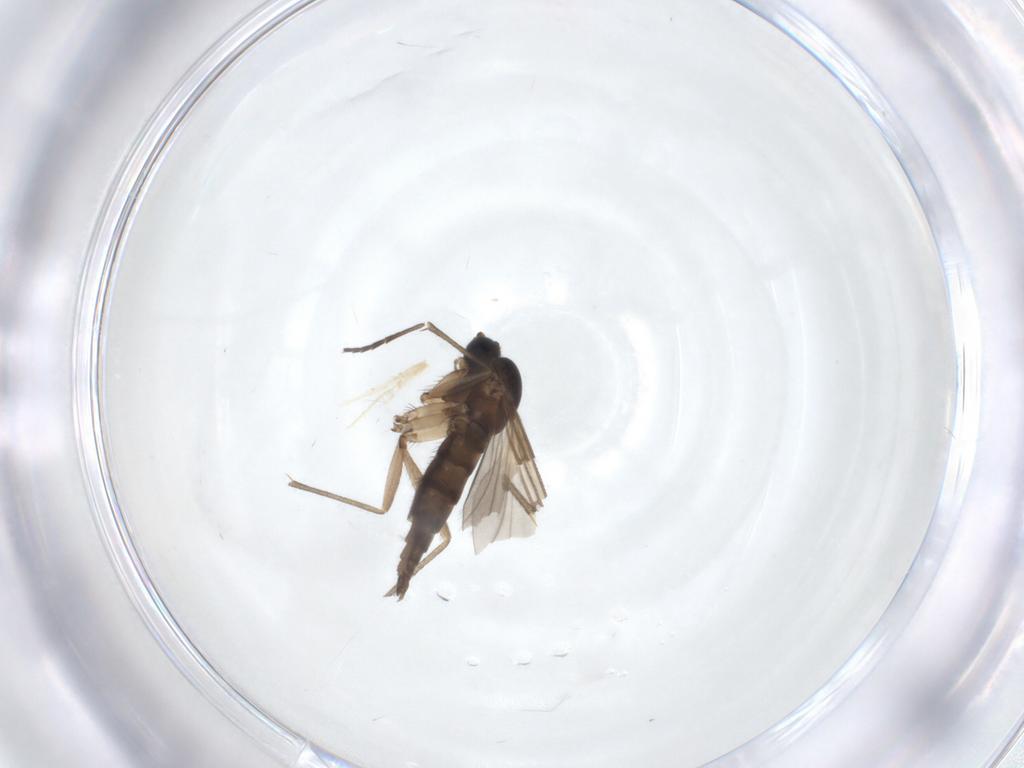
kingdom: Animalia
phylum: Arthropoda
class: Insecta
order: Diptera
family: Sciaridae
